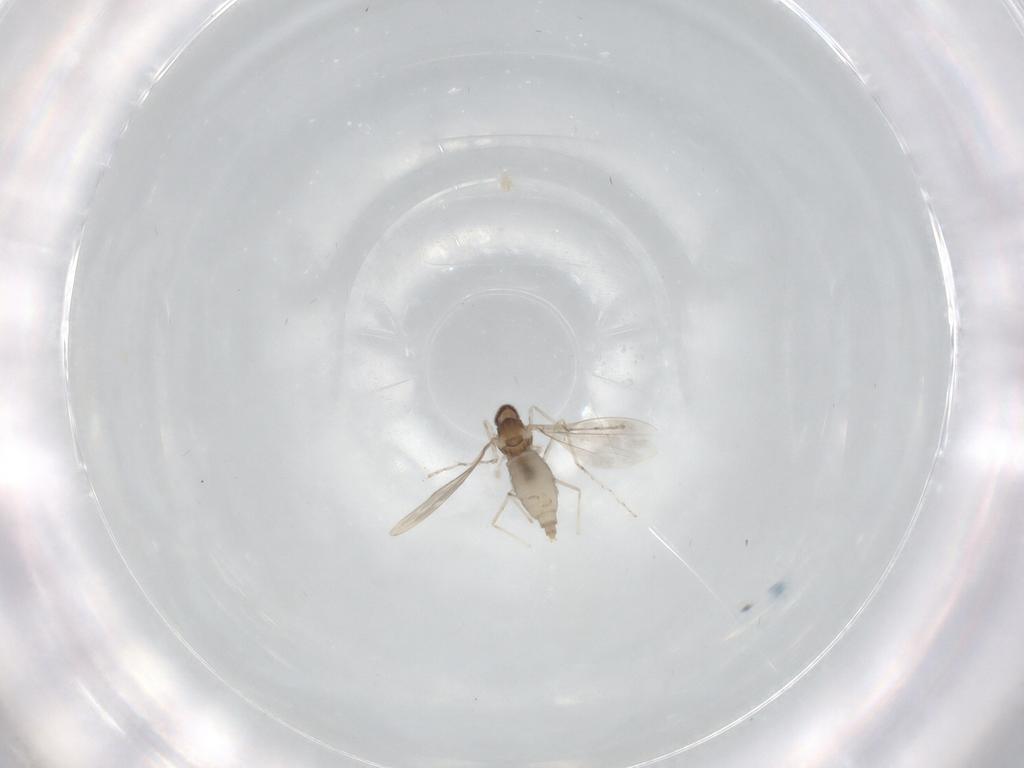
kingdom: Animalia
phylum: Arthropoda
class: Insecta
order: Diptera
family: Cecidomyiidae
